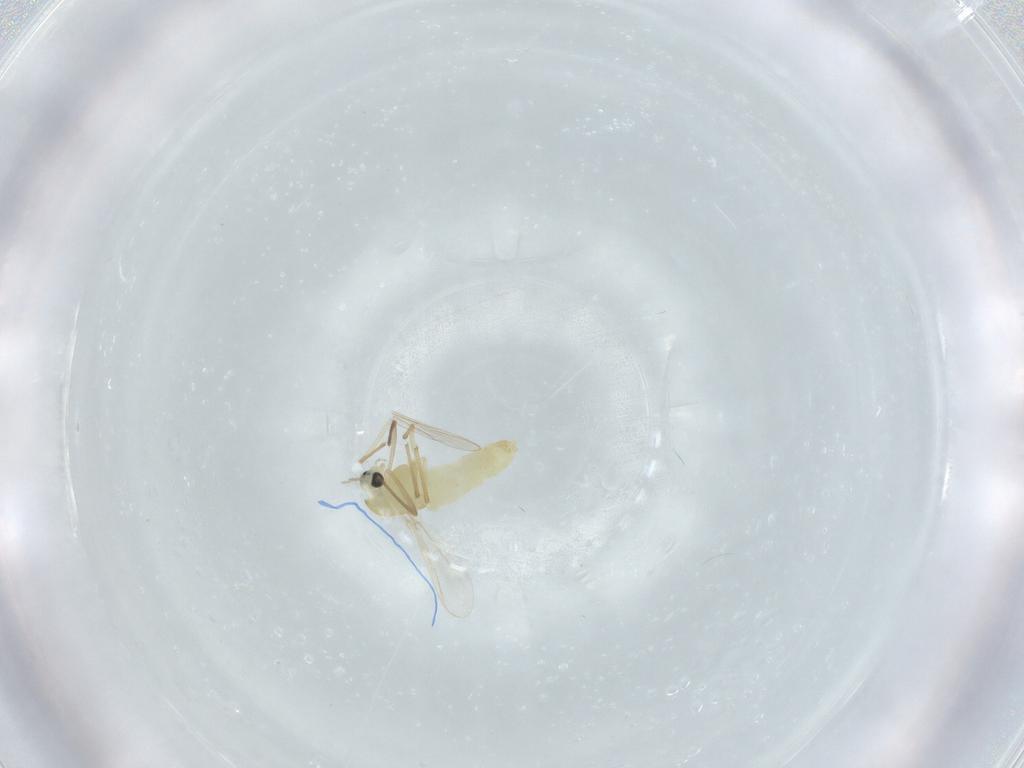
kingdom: Animalia
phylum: Arthropoda
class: Insecta
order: Diptera
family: Chironomidae
